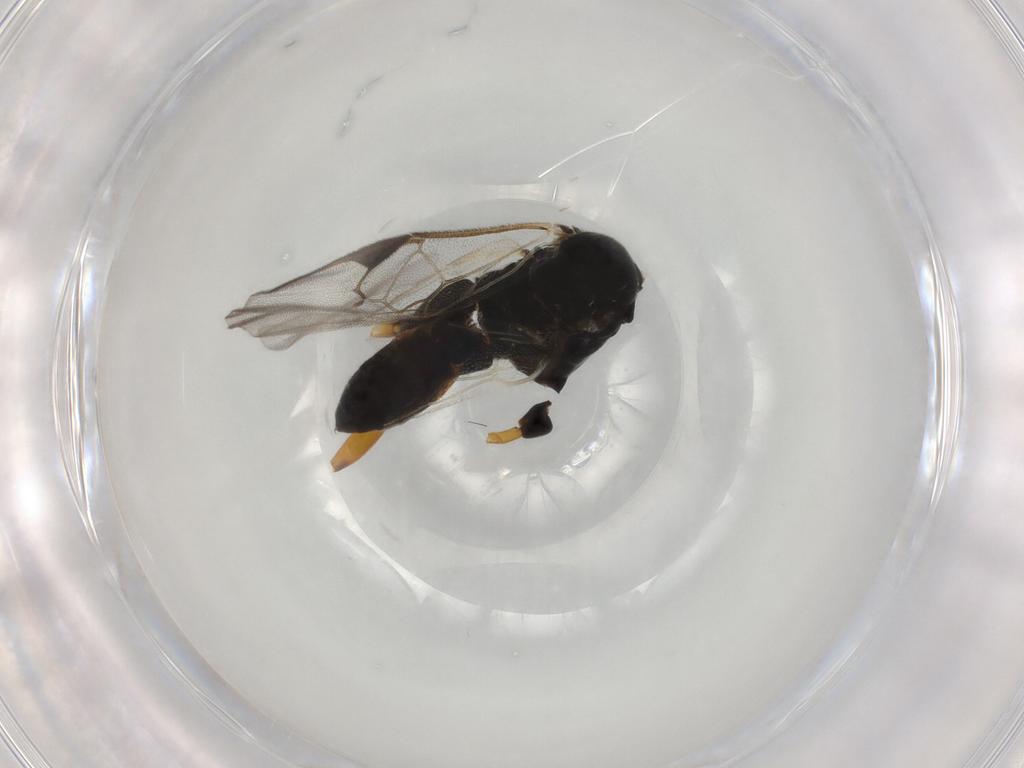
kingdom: Animalia
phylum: Arthropoda
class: Insecta
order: Hymenoptera
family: Braconidae
